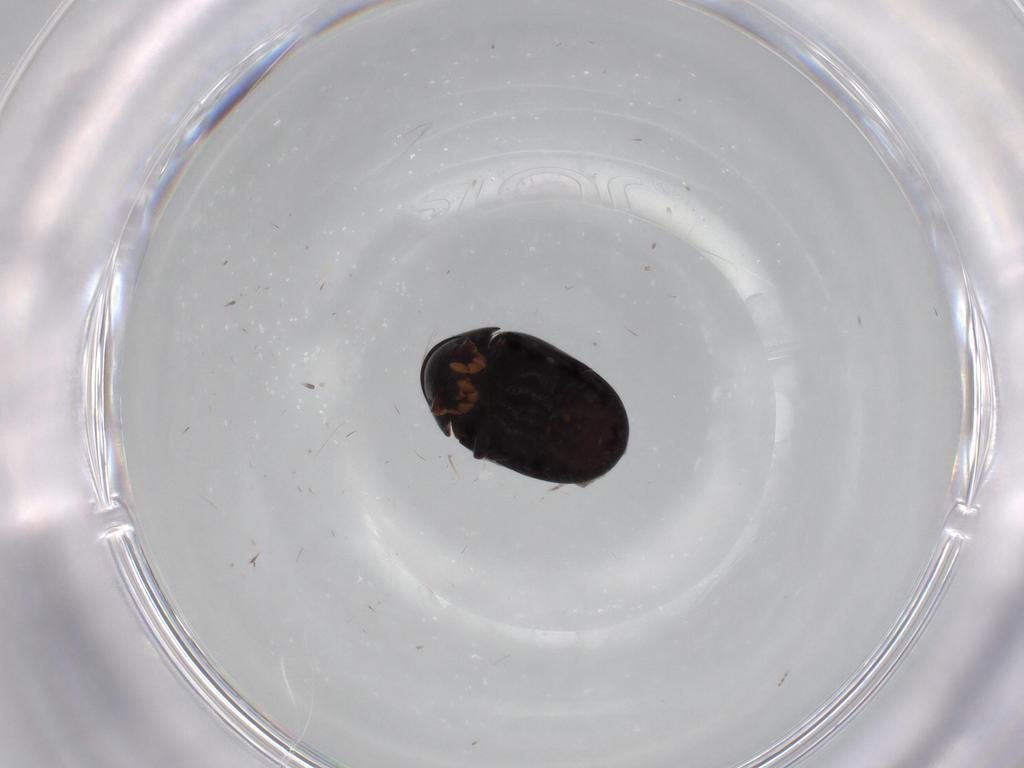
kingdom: Animalia
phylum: Arthropoda
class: Insecta
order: Coleoptera
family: Ptinidae
